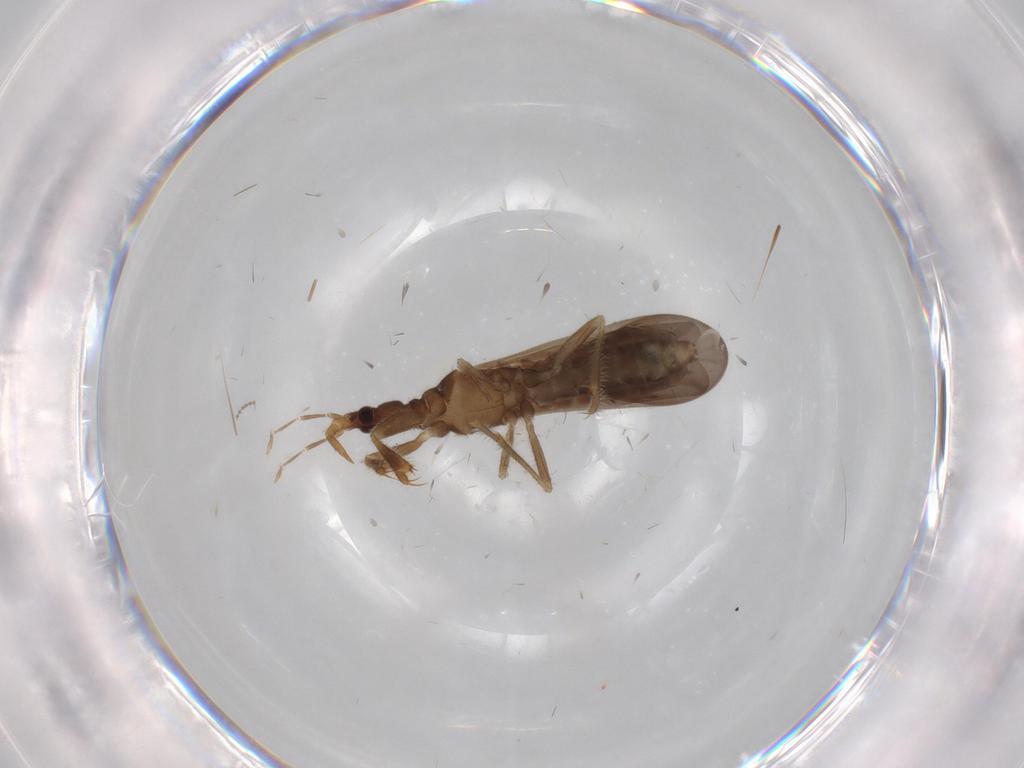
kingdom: Animalia
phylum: Arthropoda
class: Insecta
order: Hemiptera
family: Enicocephalidae
